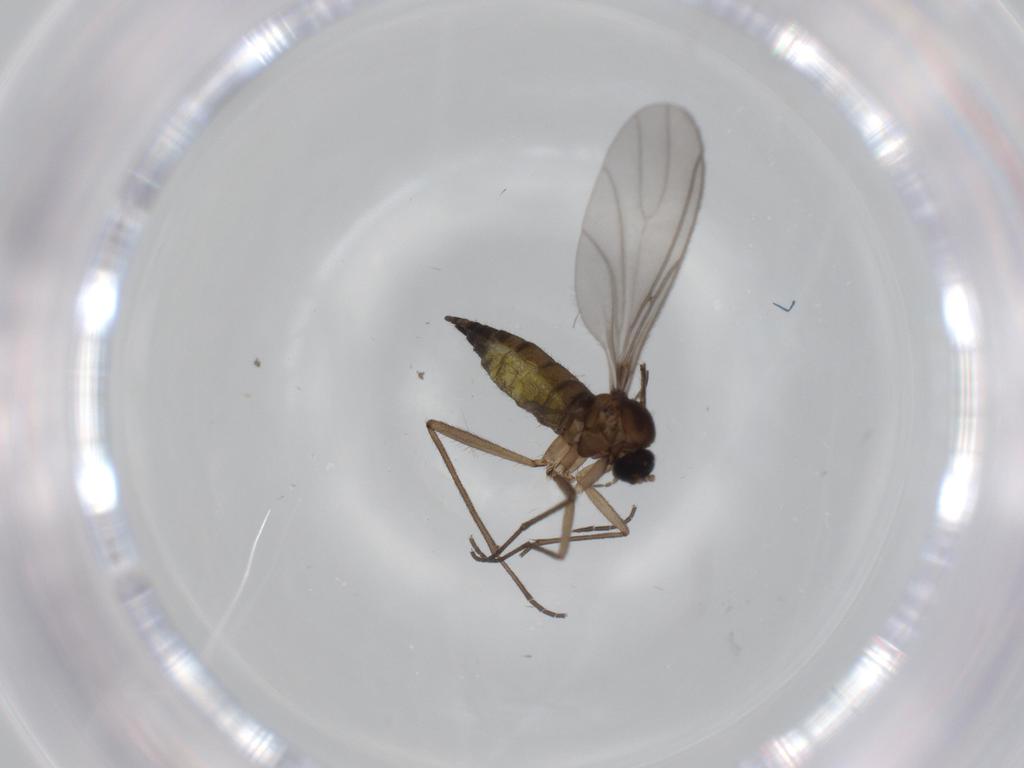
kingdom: Animalia
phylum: Arthropoda
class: Insecta
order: Diptera
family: Sciaridae
